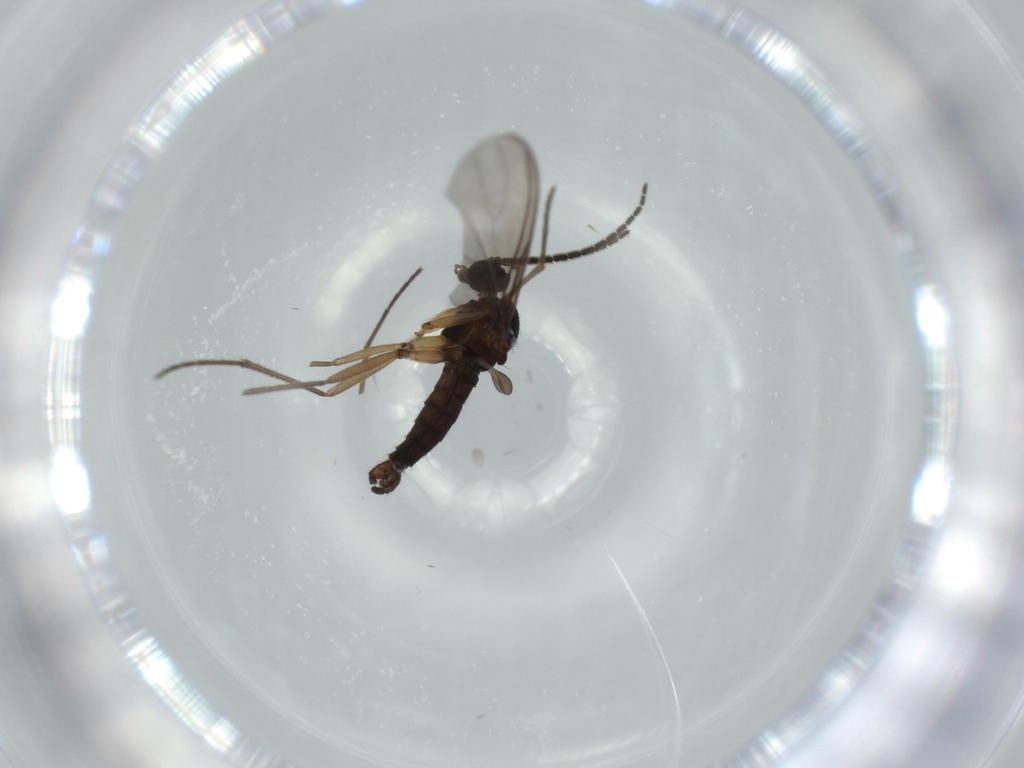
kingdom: Animalia
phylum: Arthropoda
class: Insecta
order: Diptera
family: Sciaridae
